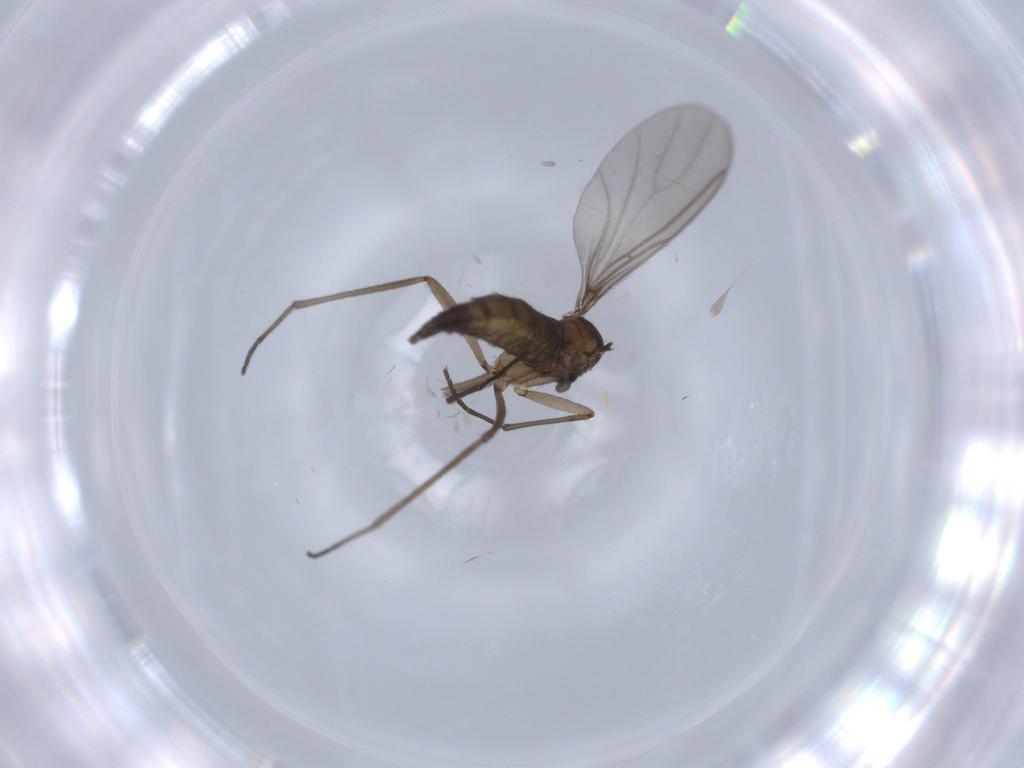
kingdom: Animalia
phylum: Arthropoda
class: Insecta
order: Diptera
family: Sciaridae
